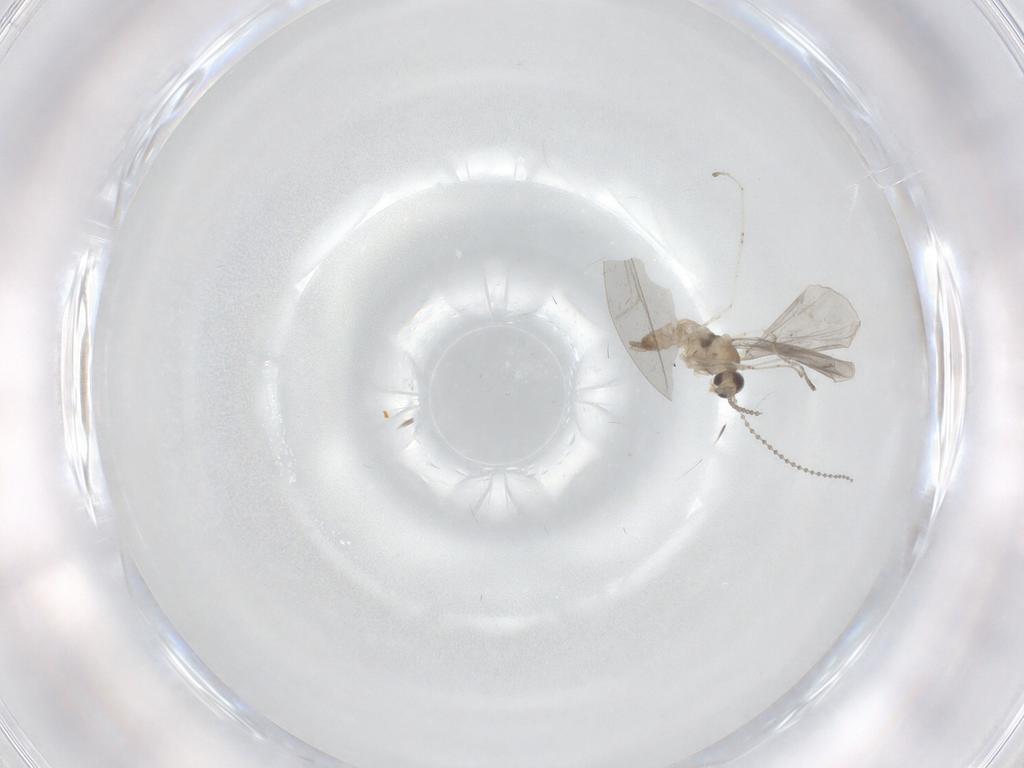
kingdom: Animalia
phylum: Arthropoda
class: Insecta
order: Diptera
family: Cecidomyiidae
